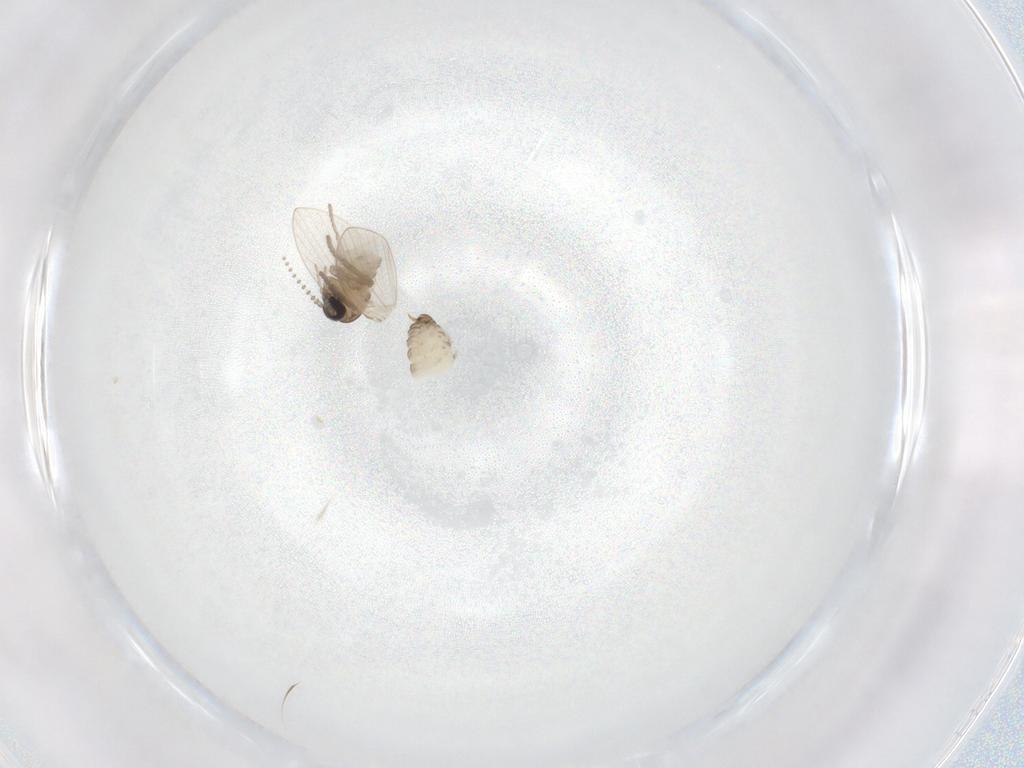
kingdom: Animalia
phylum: Arthropoda
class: Insecta
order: Diptera
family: Psychodidae
